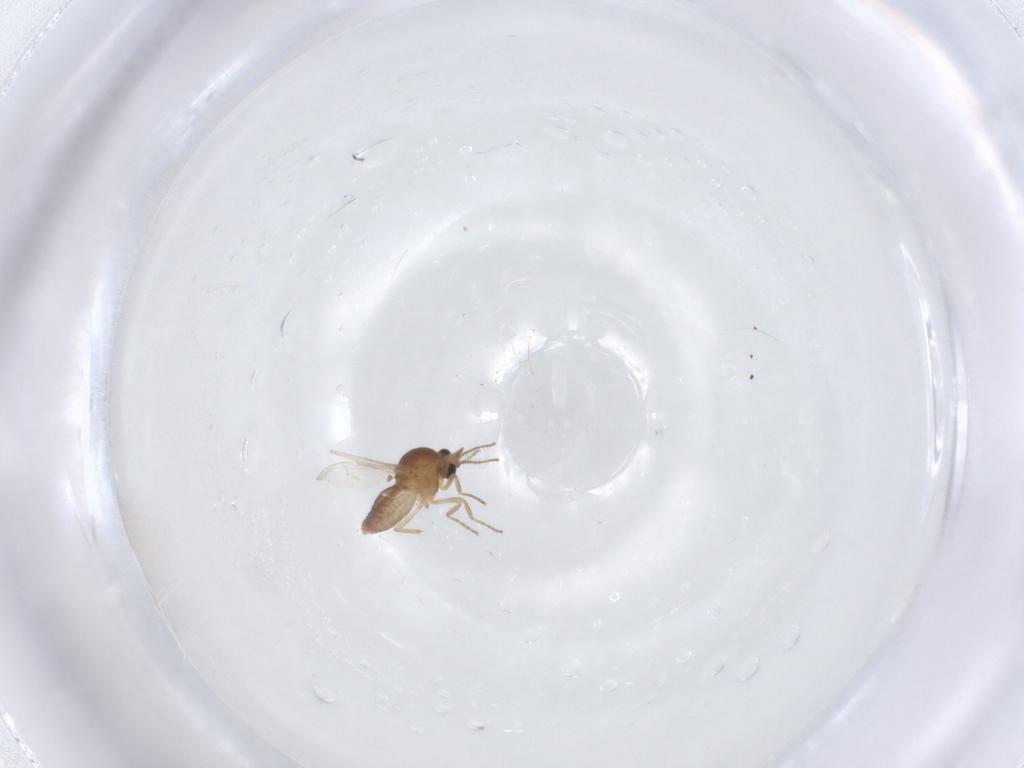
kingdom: Animalia
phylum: Arthropoda
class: Insecta
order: Diptera
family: Ceratopogonidae
